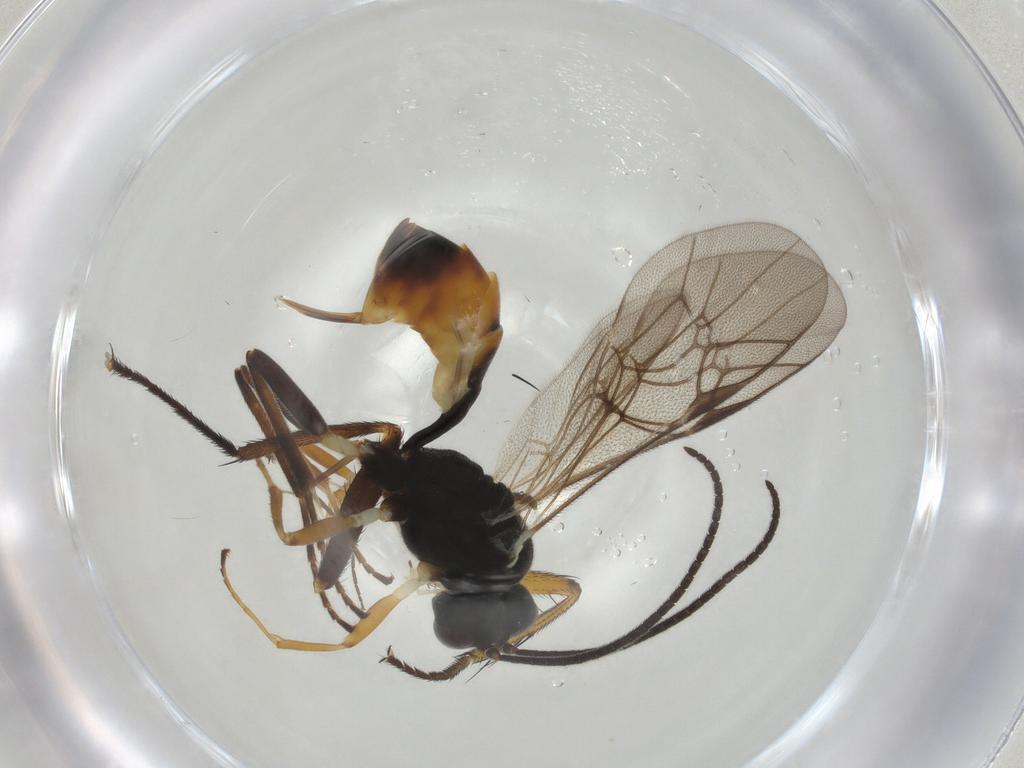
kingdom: Animalia
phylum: Arthropoda
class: Insecta
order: Hymenoptera
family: Ichneumonidae
